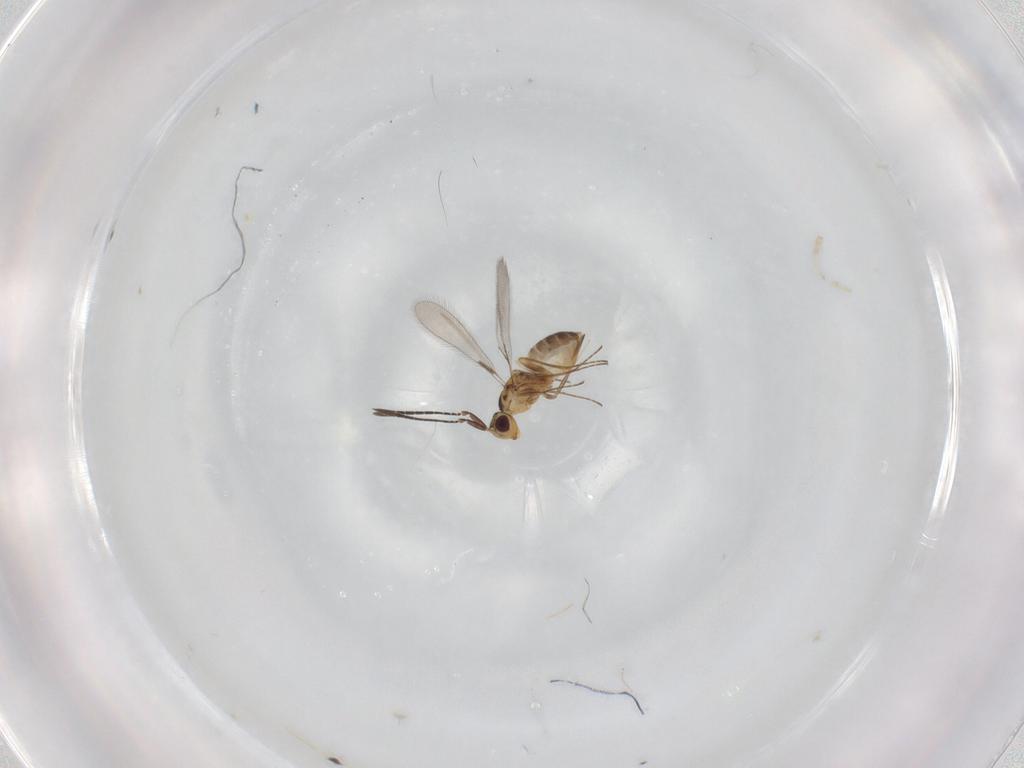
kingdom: Animalia
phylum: Arthropoda
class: Insecta
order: Hymenoptera
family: Mymaridae
